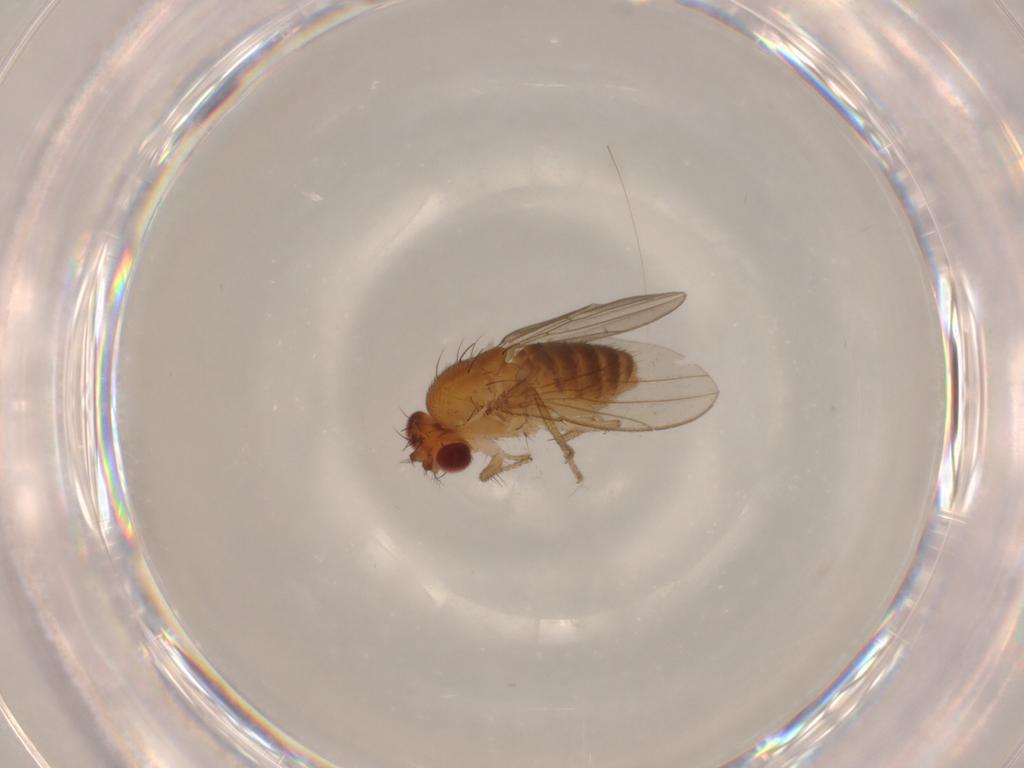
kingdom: Animalia
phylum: Arthropoda
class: Insecta
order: Diptera
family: Drosophilidae
